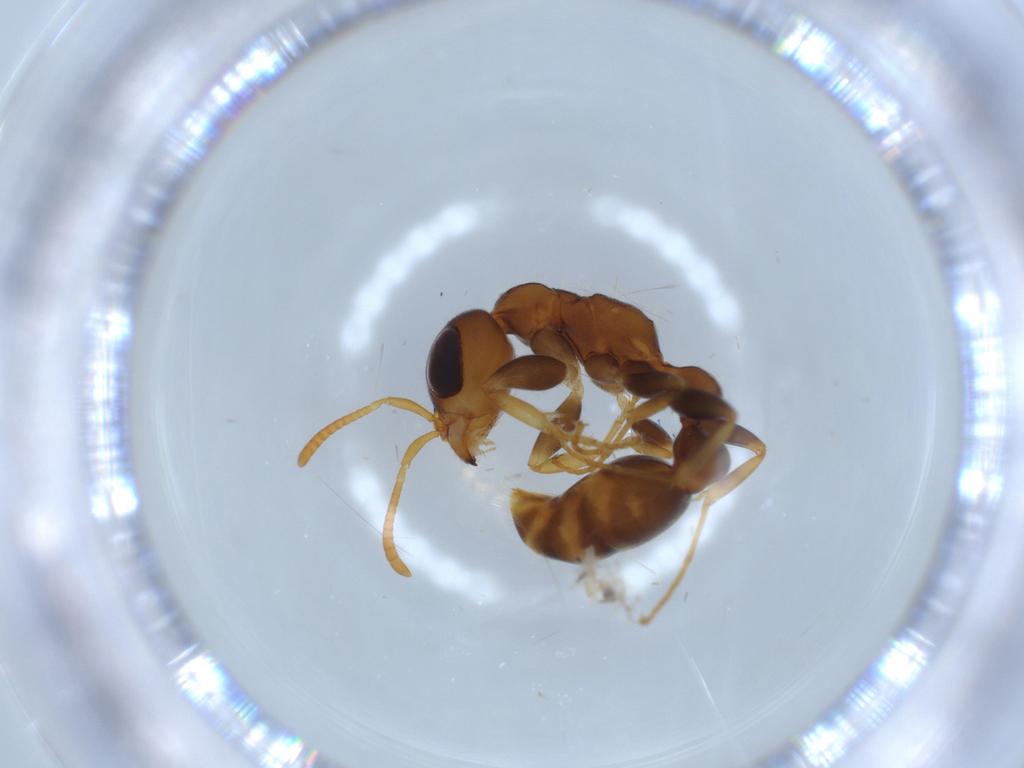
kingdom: Animalia
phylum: Arthropoda
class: Insecta
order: Hymenoptera
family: Formicidae
